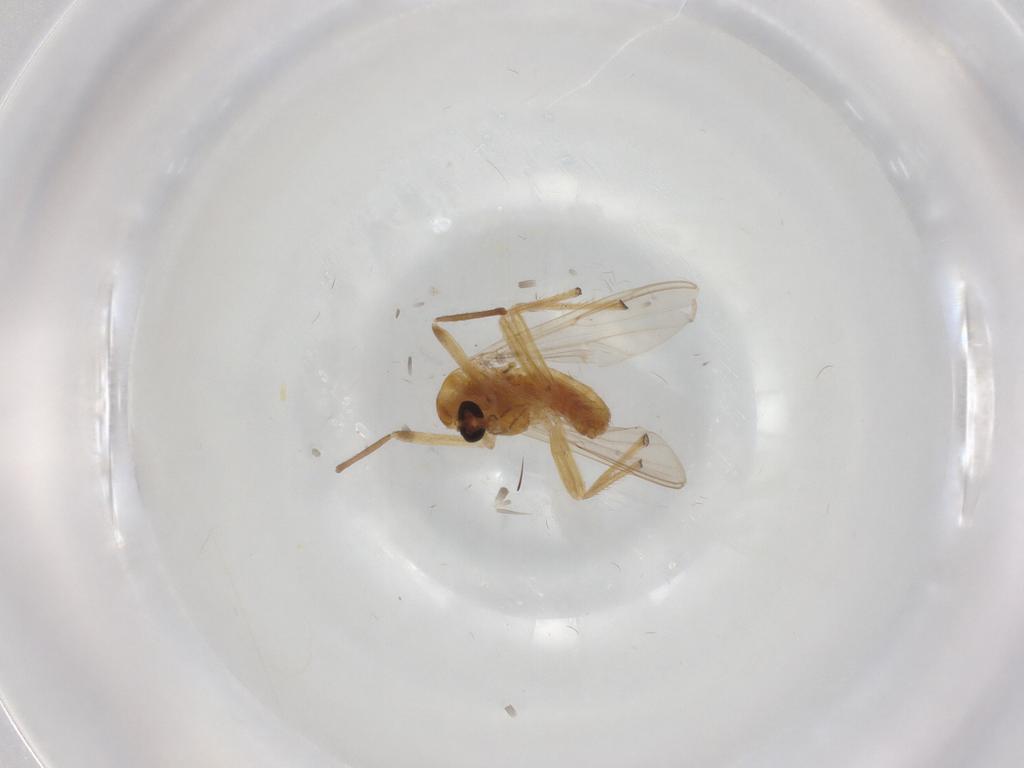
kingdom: Animalia
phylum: Arthropoda
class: Insecta
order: Diptera
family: Chironomidae
